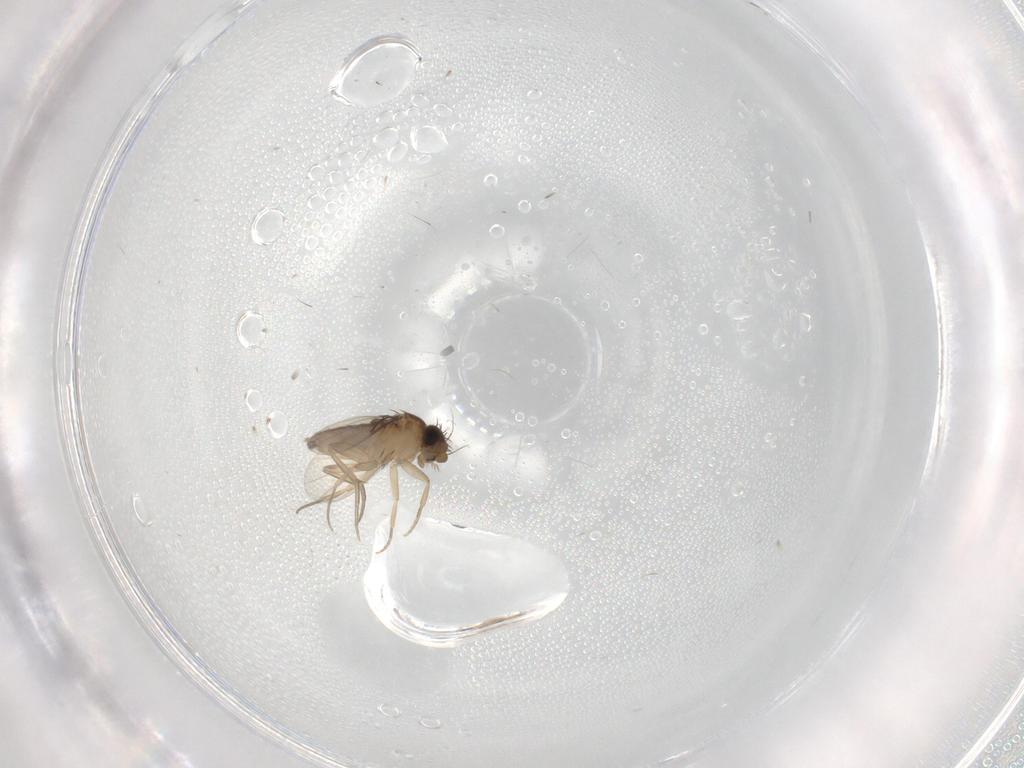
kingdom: Animalia
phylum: Arthropoda
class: Insecta
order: Diptera
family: Phoridae
